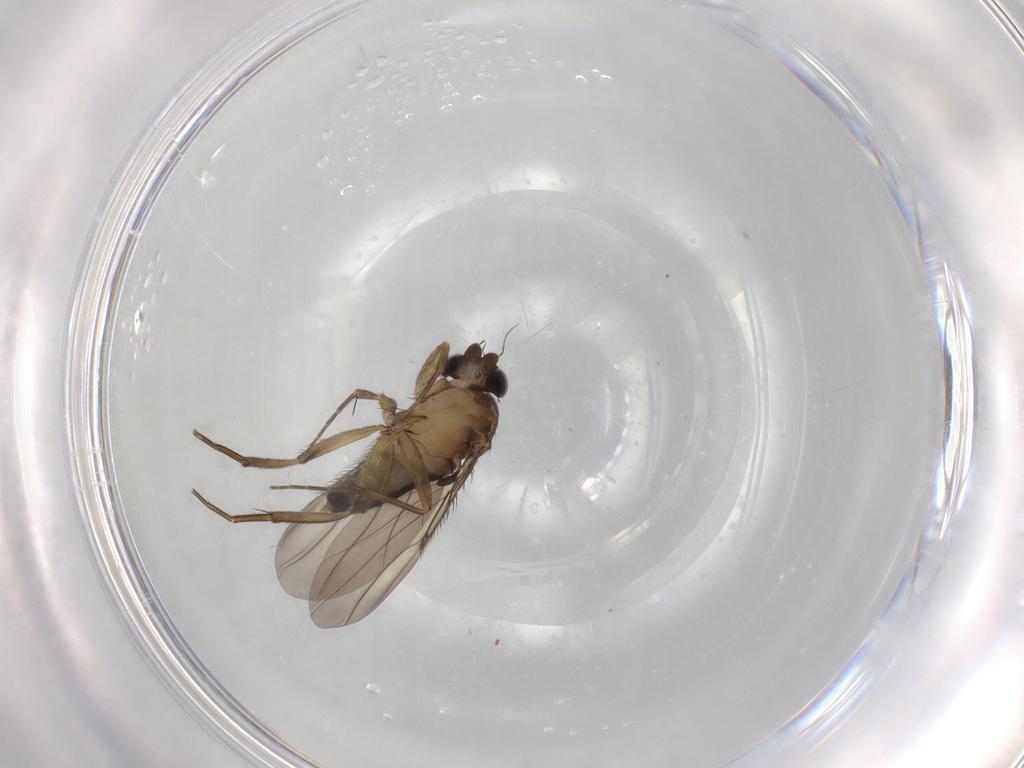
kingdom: Animalia
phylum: Arthropoda
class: Insecta
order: Diptera
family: Phoridae
